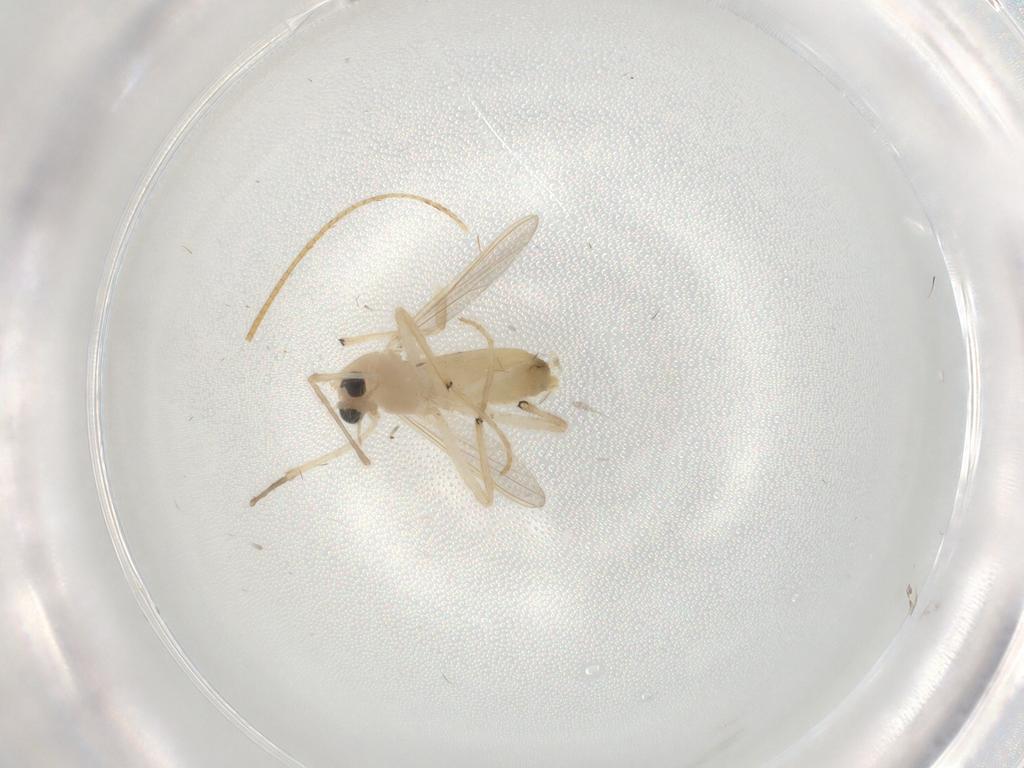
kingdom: Animalia
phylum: Arthropoda
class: Insecta
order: Diptera
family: Chironomidae
